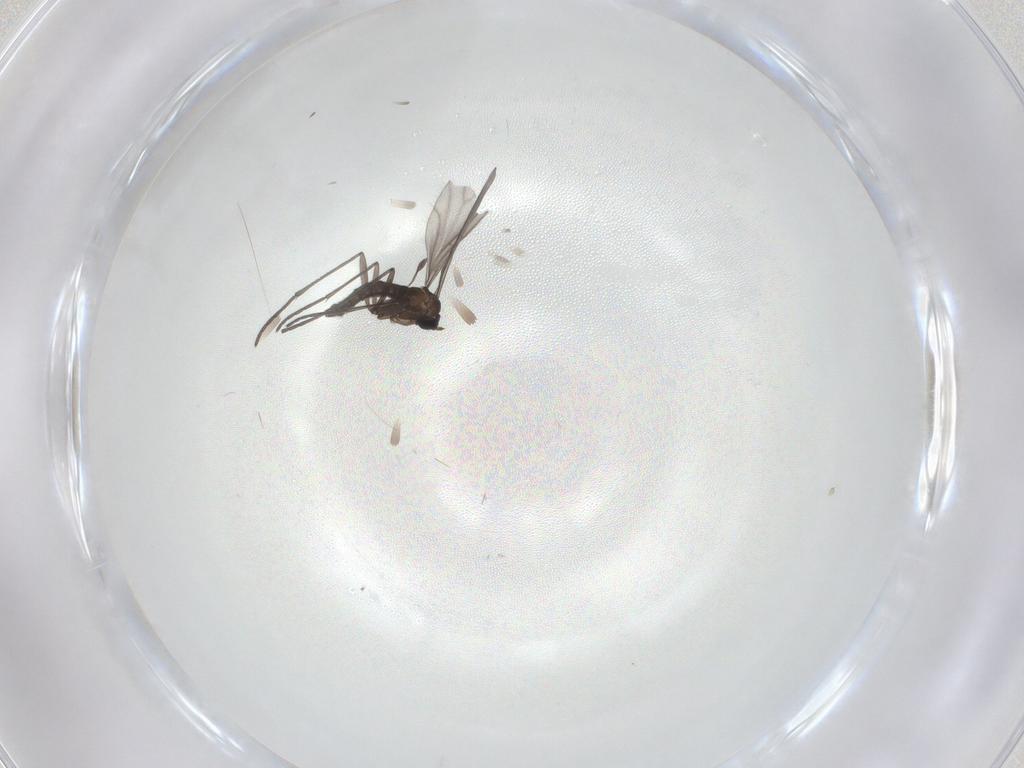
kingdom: Animalia
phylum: Arthropoda
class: Insecta
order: Diptera
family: Sciaridae
